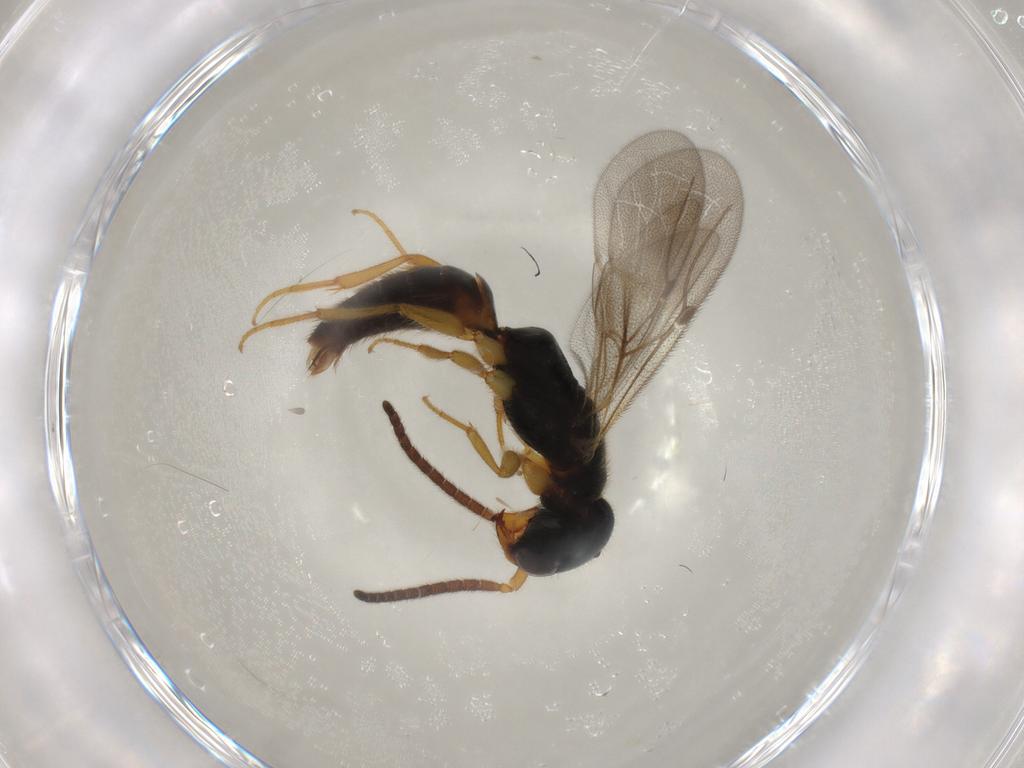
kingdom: Animalia
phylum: Arthropoda
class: Insecta
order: Hymenoptera
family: Bethylidae
